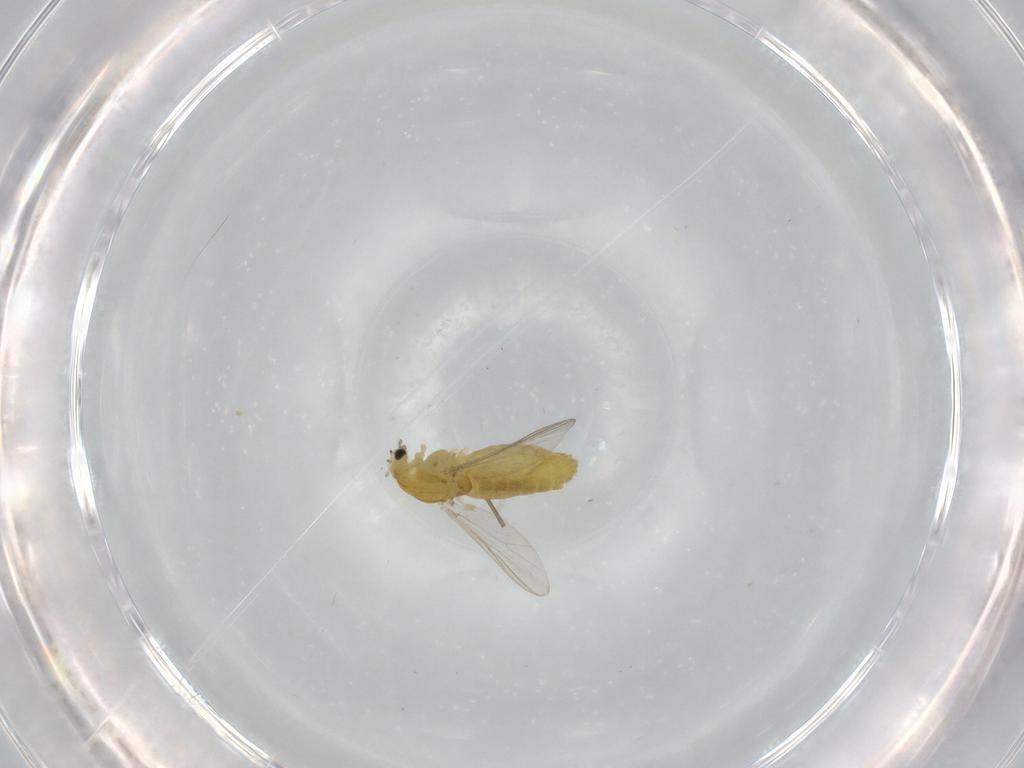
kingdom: Animalia
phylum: Arthropoda
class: Insecta
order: Diptera
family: Chironomidae
